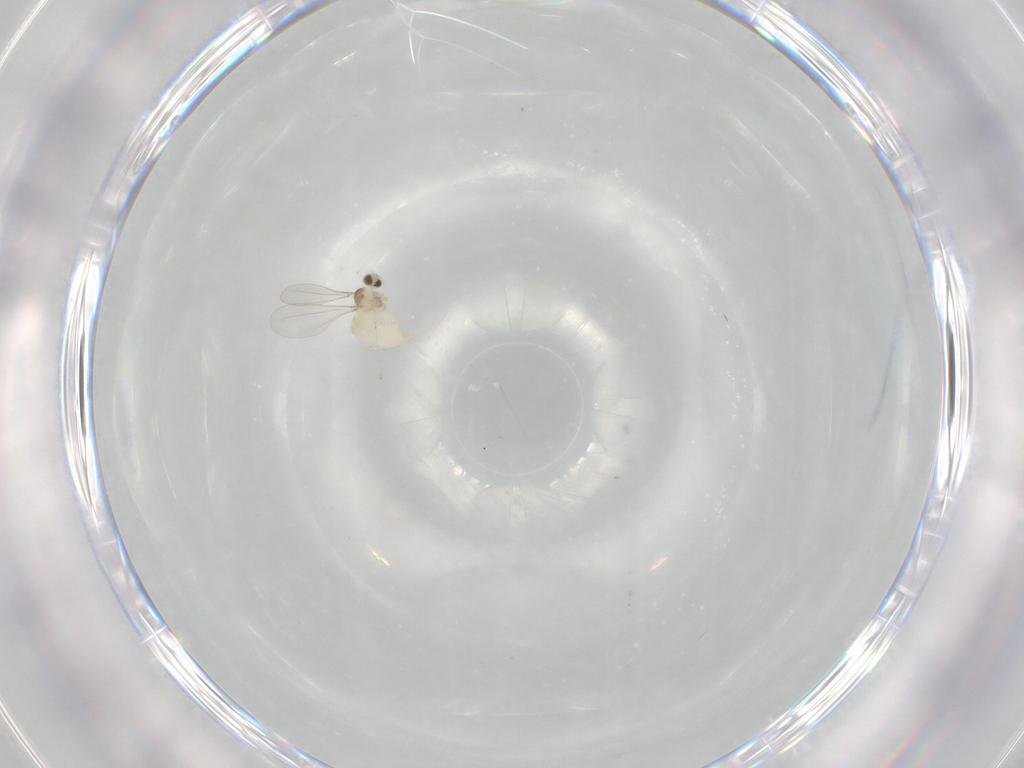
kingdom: Animalia
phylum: Arthropoda
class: Insecta
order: Diptera
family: Cecidomyiidae
